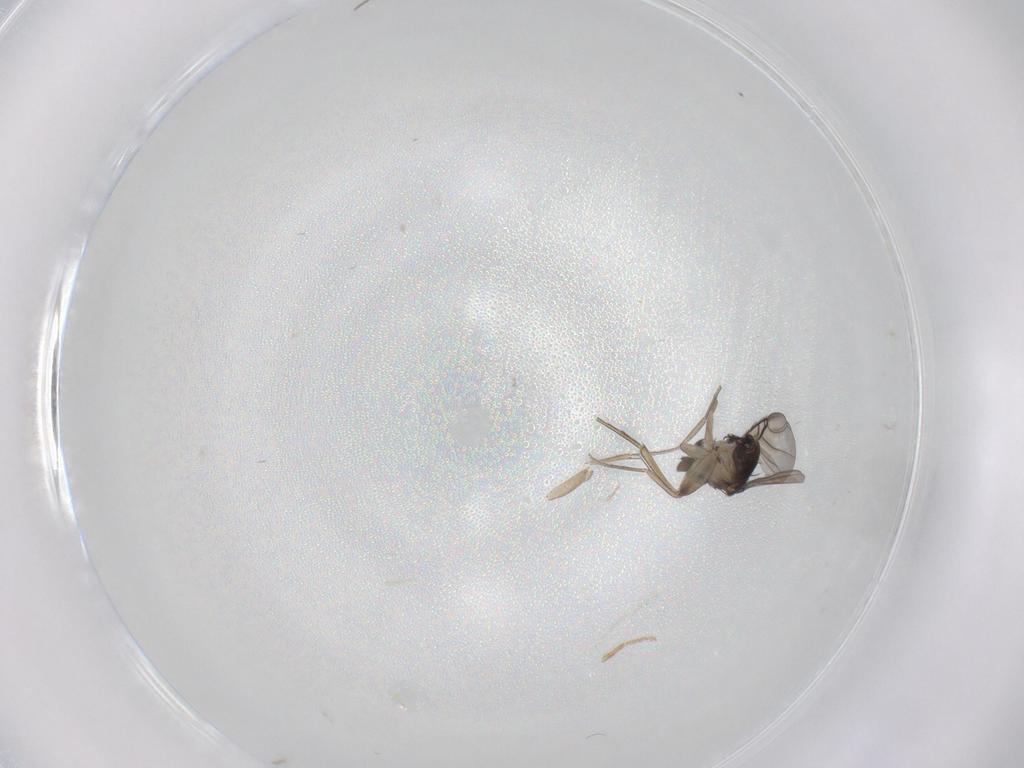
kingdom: Animalia
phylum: Arthropoda
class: Insecta
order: Diptera
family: Phoridae
